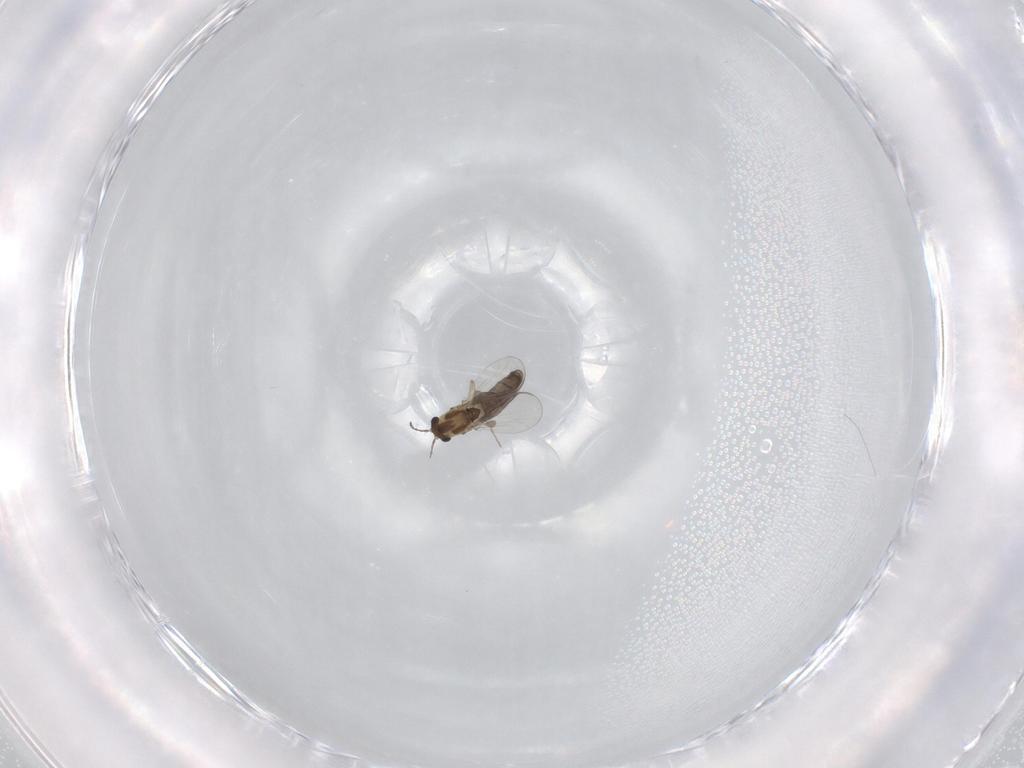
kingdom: Animalia
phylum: Arthropoda
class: Insecta
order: Diptera
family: Chironomidae
